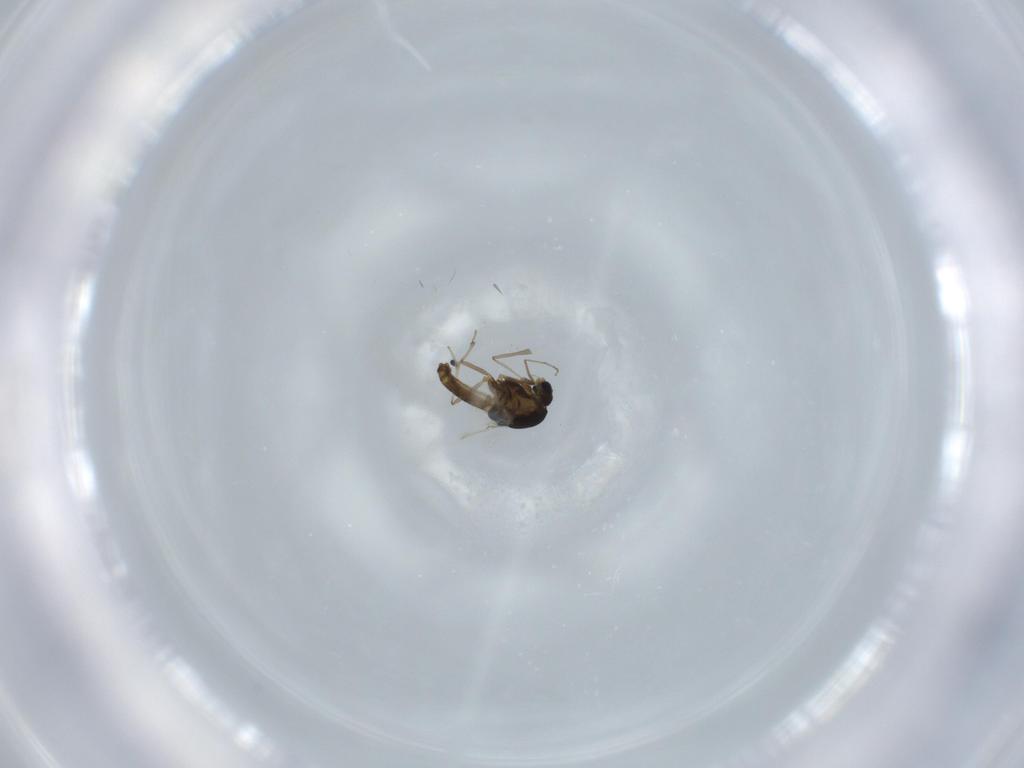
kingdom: Animalia
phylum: Arthropoda
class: Insecta
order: Diptera
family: Chironomidae
